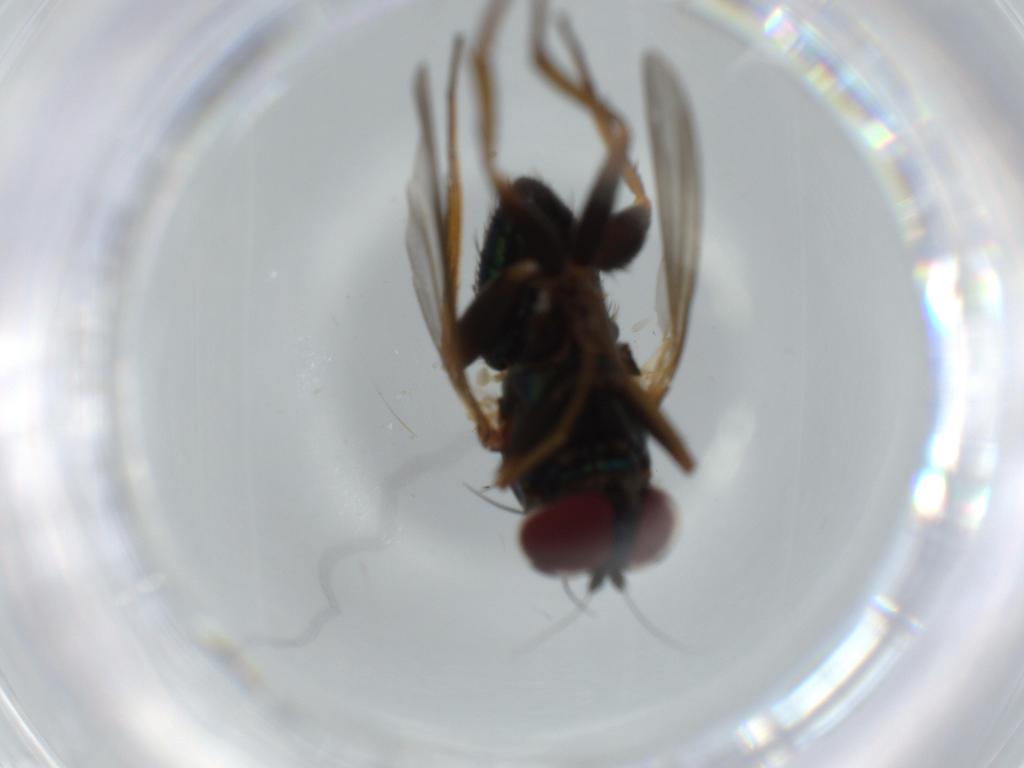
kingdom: Animalia
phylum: Arthropoda
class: Insecta
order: Diptera
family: Dolichopodidae
